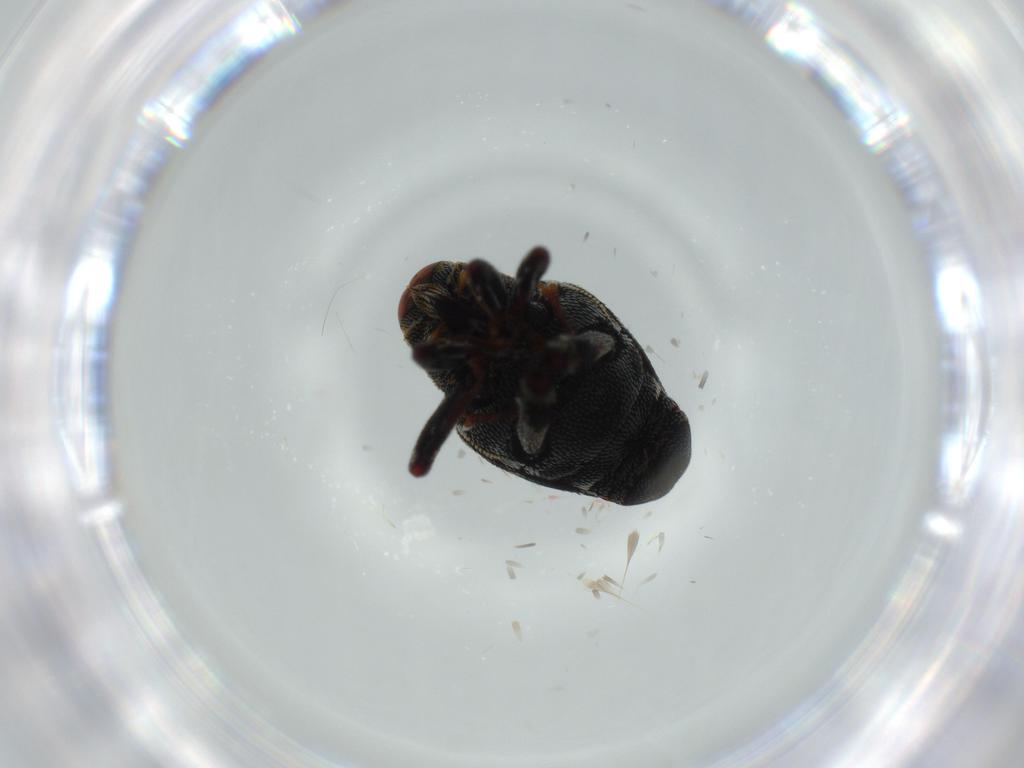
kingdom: Animalia
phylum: Arthropoda
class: Insecta
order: Coleoptera
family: Curculionidae
